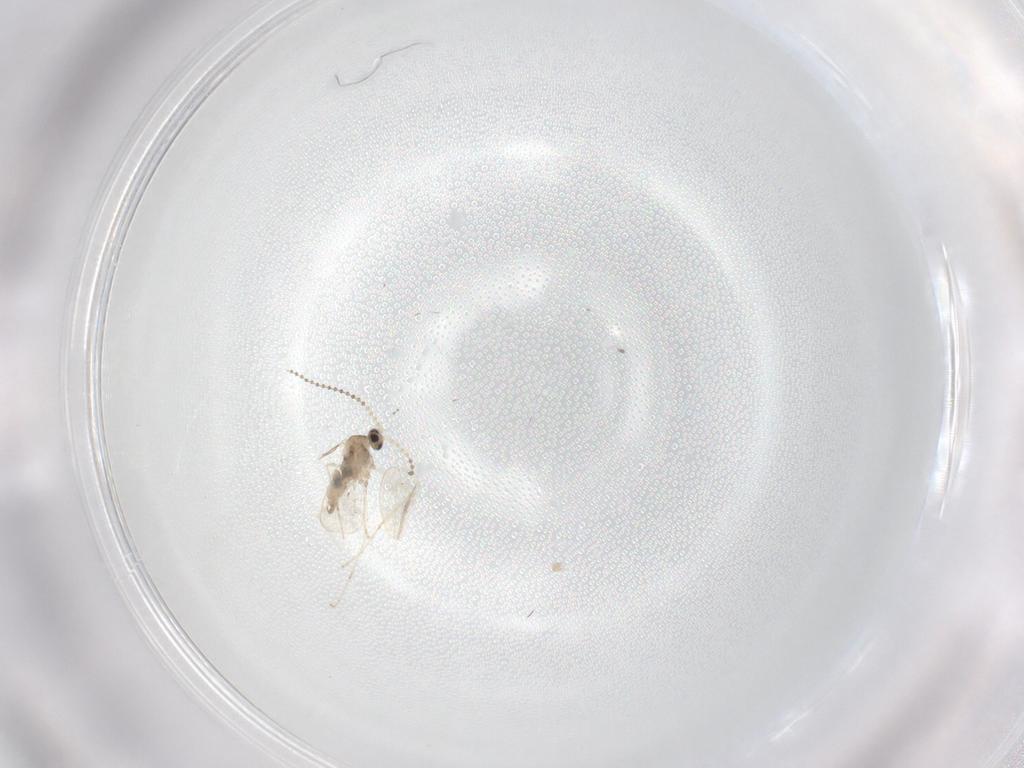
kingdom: Animalia
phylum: Arthropoda
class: Insecta
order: Diptera
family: Cecidomyiidae
